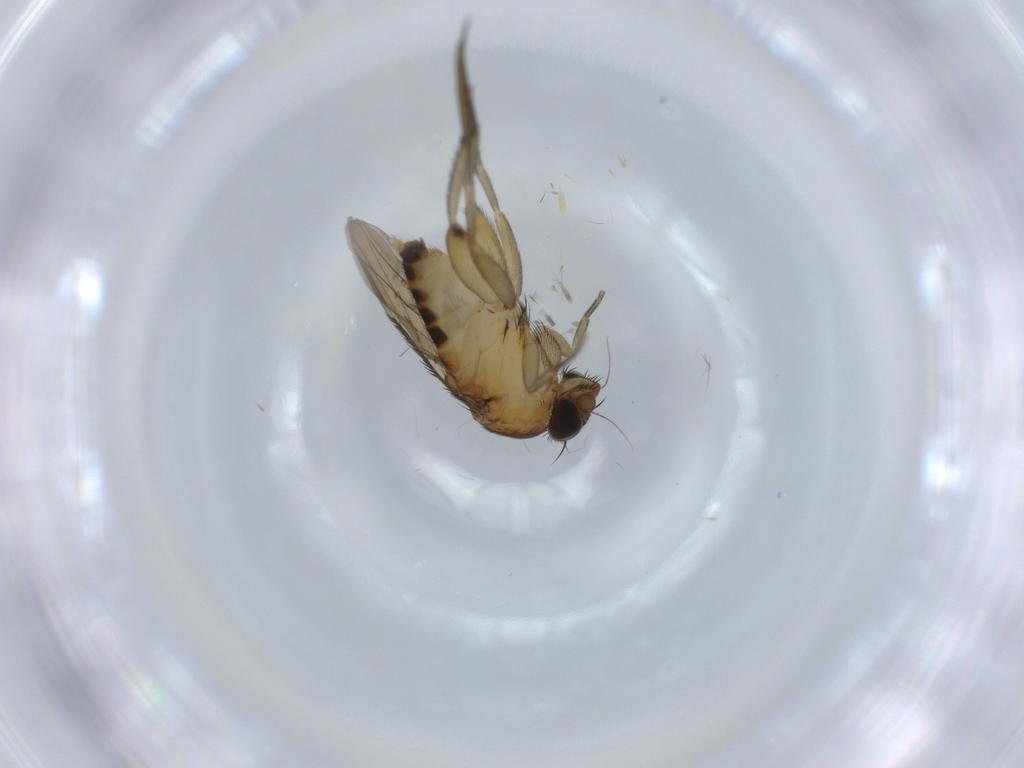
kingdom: Animalia
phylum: Arthropoda
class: Insecta
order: Diptera
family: Phoridae
